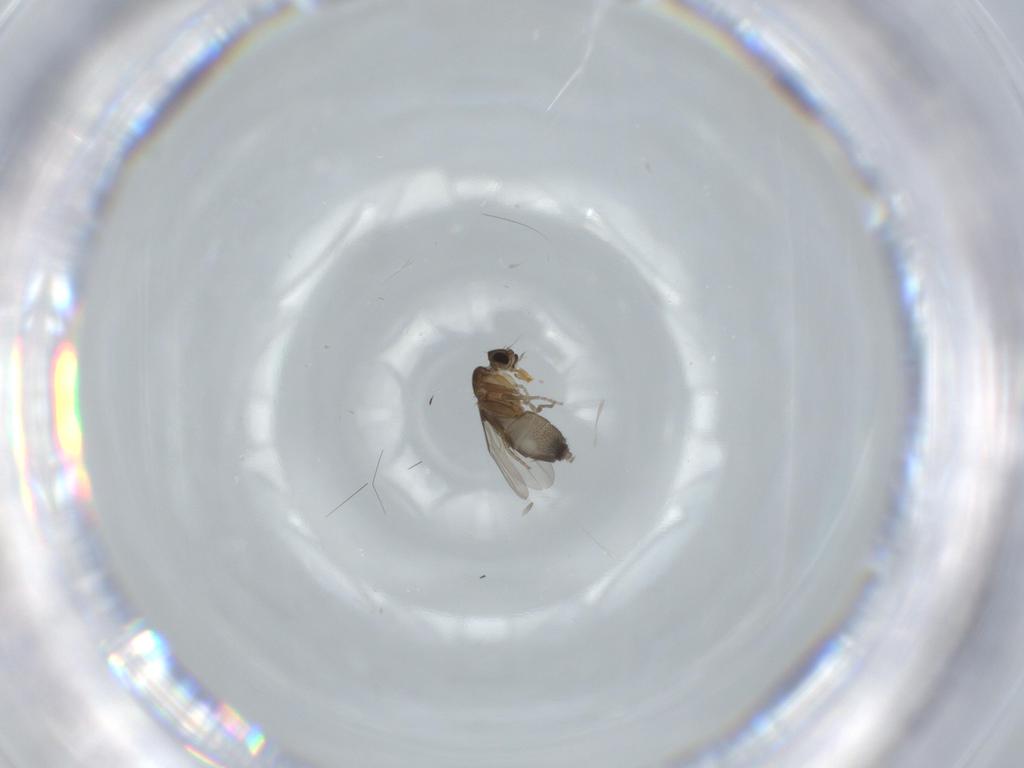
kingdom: Animalia
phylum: Arthropoda
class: Insecta
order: Diptera
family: Phoridae
